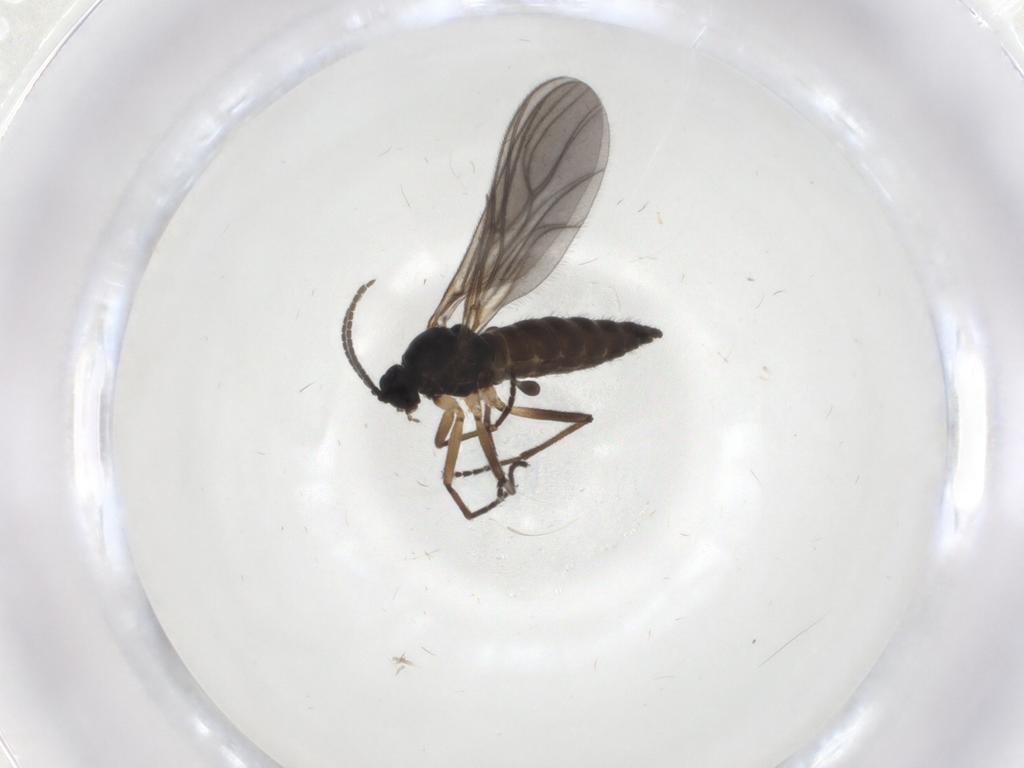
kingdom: Animalia
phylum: Arthropoda
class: Insecta
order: Diptera
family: Sciaridae
